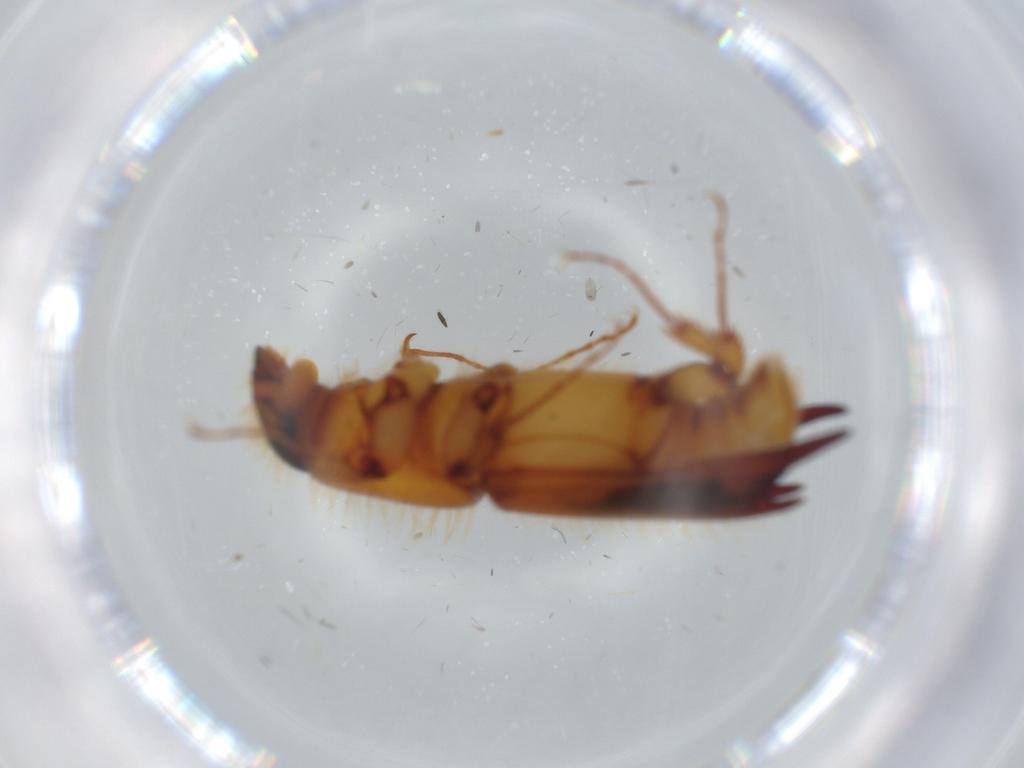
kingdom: Animalia
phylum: Arthropoda
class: Insecta
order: Coleoptera
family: Curculionidae
